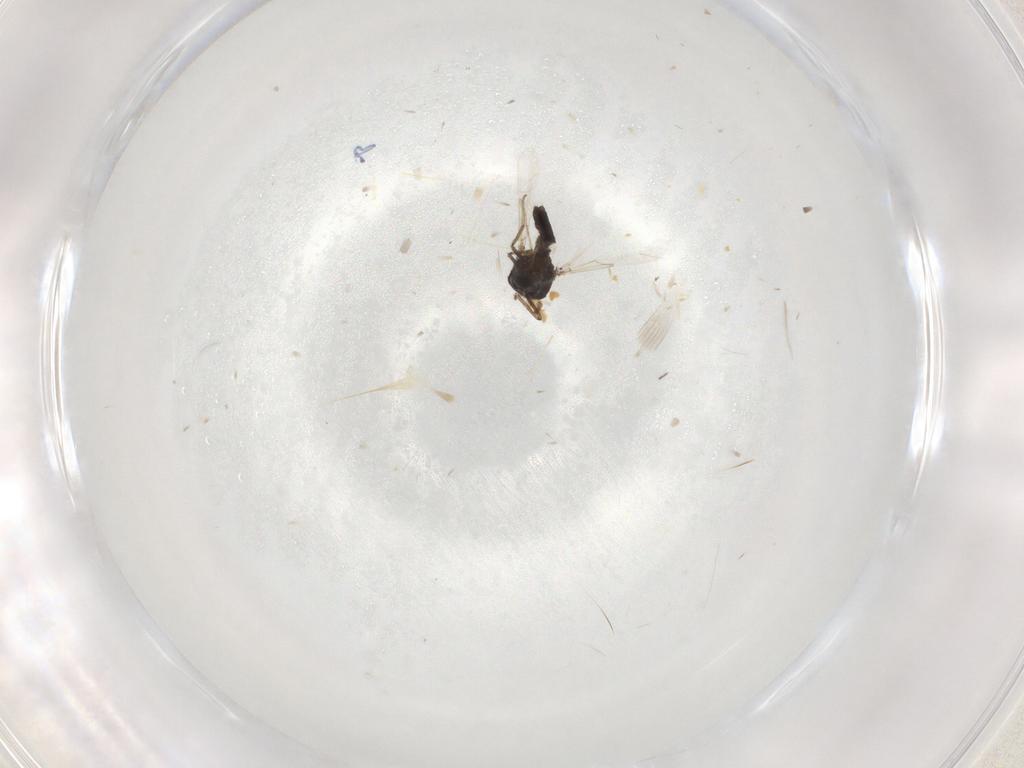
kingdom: Animalia
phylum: Arthropoda
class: Insecta
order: Diptera
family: Ceratopogonidae
